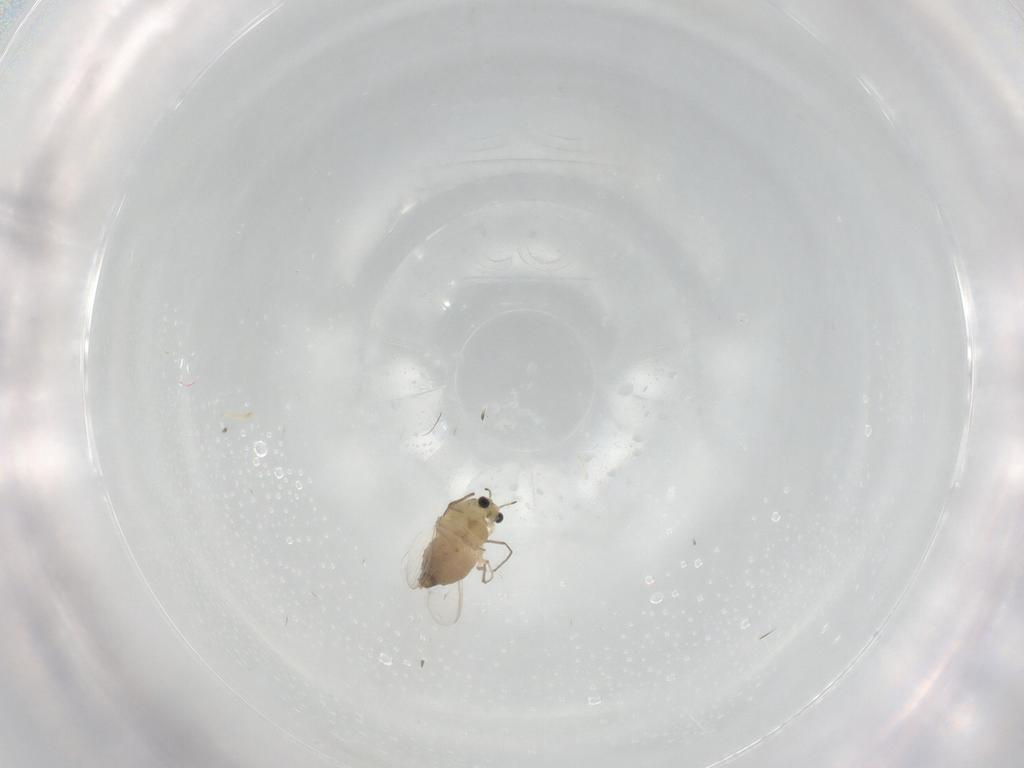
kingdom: Animalia
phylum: Arthropoda
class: Insecta
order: Diptera
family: Chironomidae
